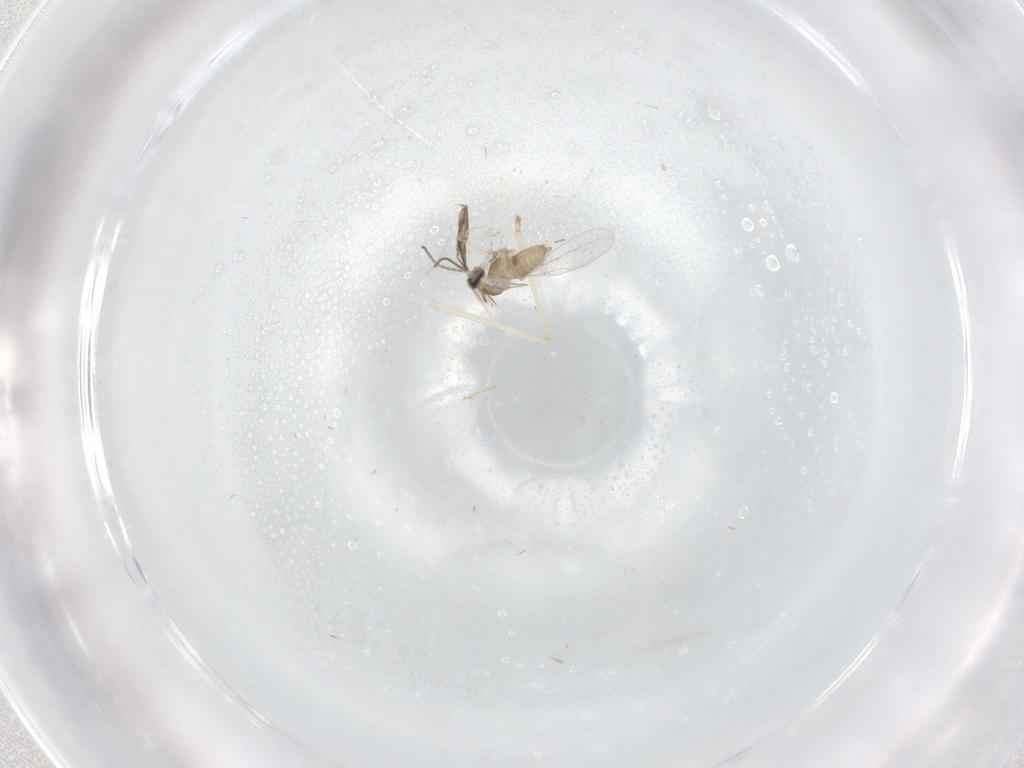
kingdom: Animalia
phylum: Arthropoda
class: Insecta
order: Diptera
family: Cecidomyiidae
